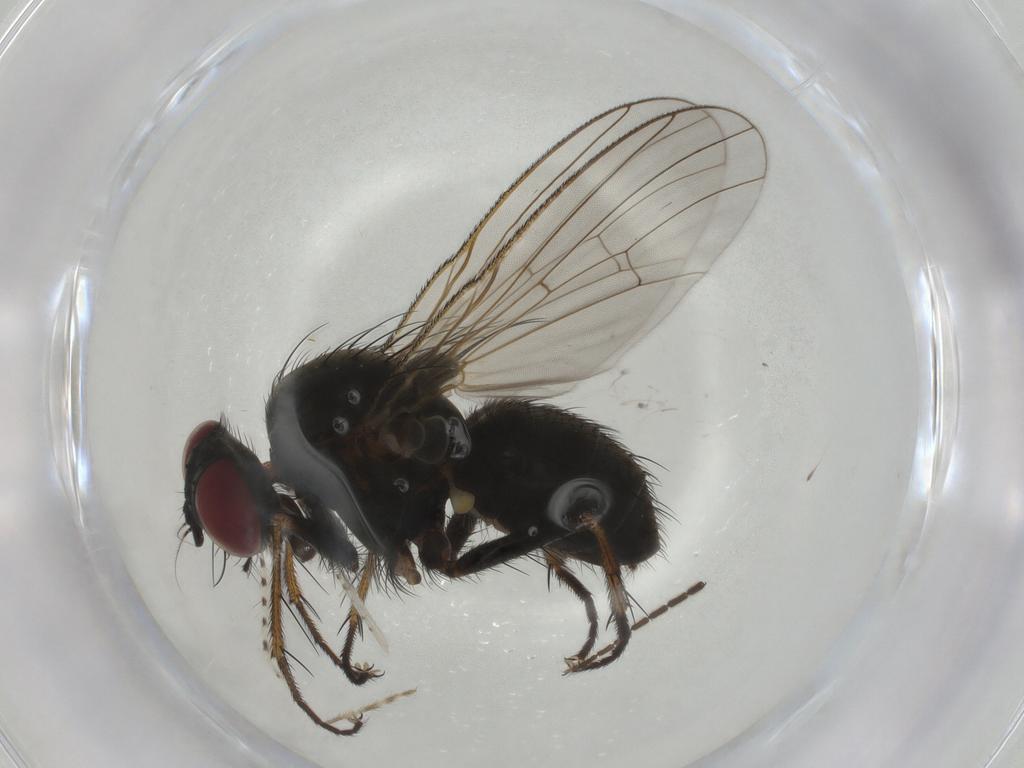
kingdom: Animalia
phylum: Arthropoda
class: Insecta
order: Diptera
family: Muscidae
